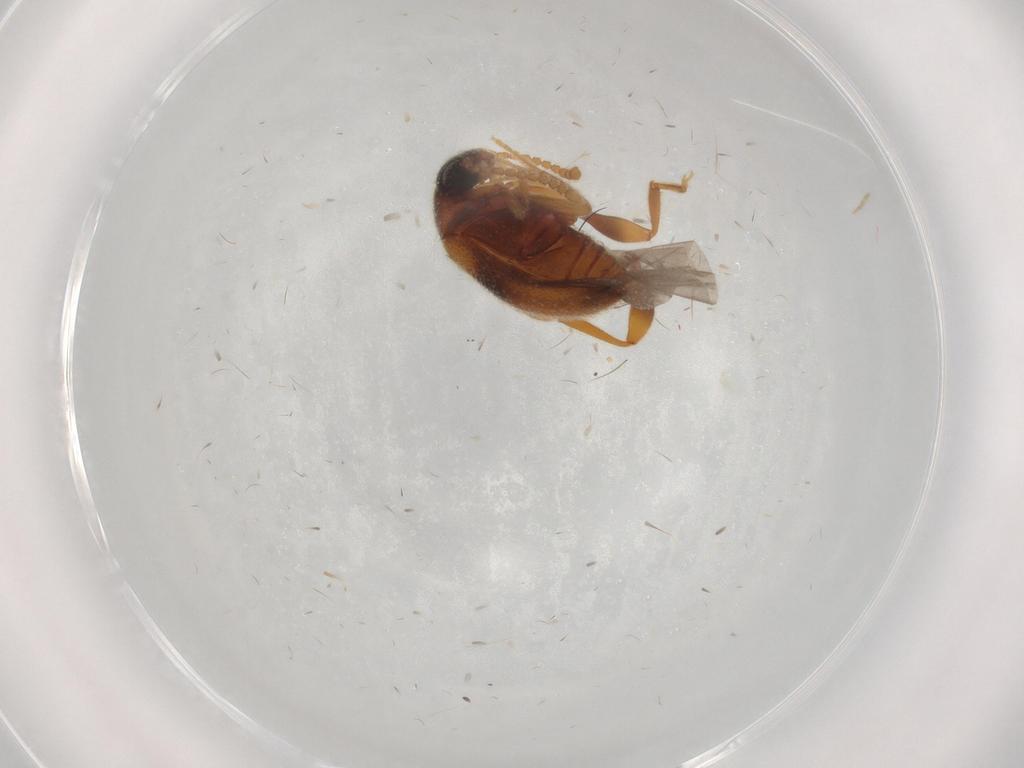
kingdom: Animalia
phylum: Arthropoda
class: Insecta
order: Coleoptera
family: Aderidae
